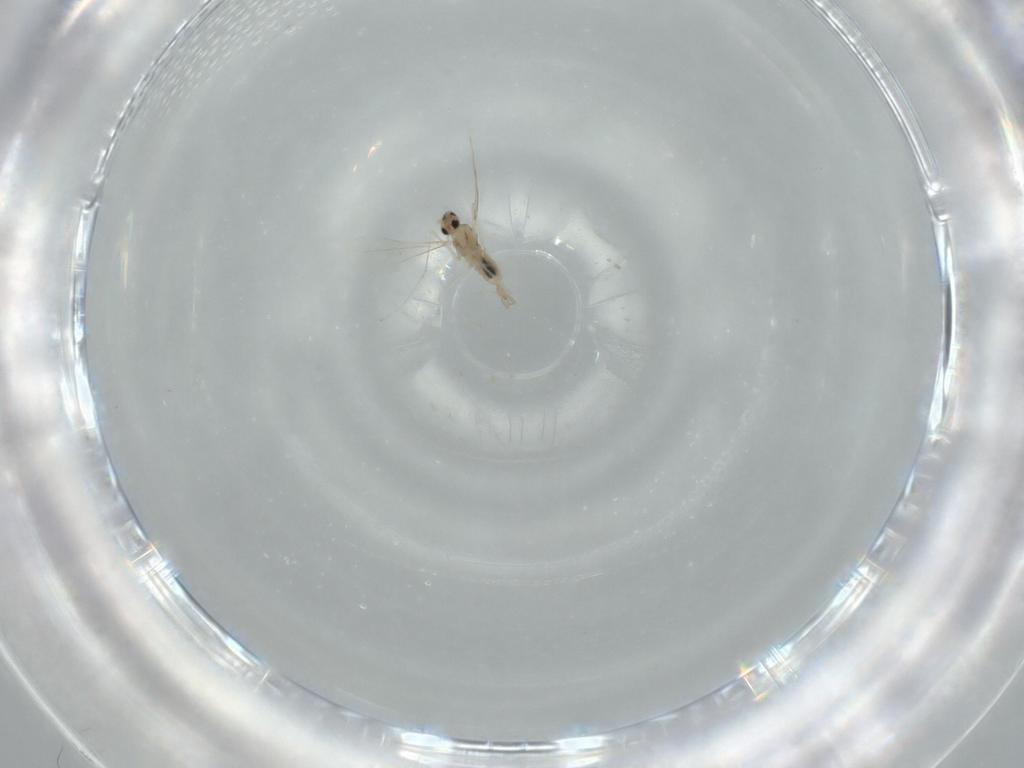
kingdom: Animalia
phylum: Arthropoda
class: Insecta
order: Diptera
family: Cecidomyiidae
